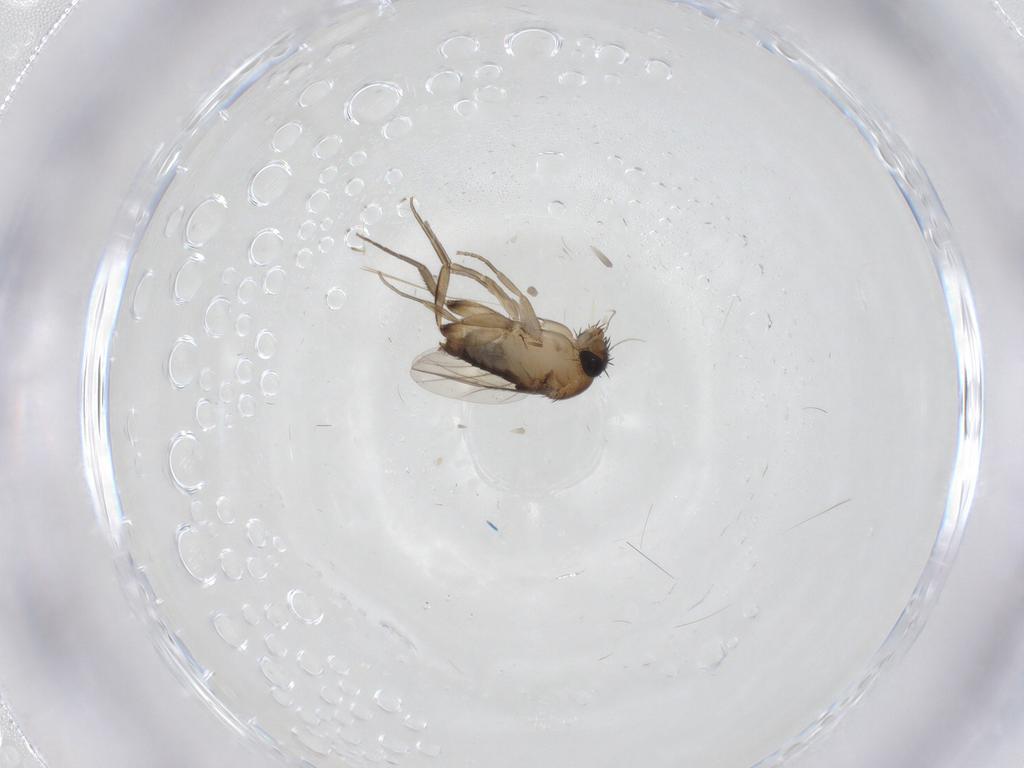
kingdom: Animalia
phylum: Arthropoda
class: Insecta
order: Diptera
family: Phoridae
